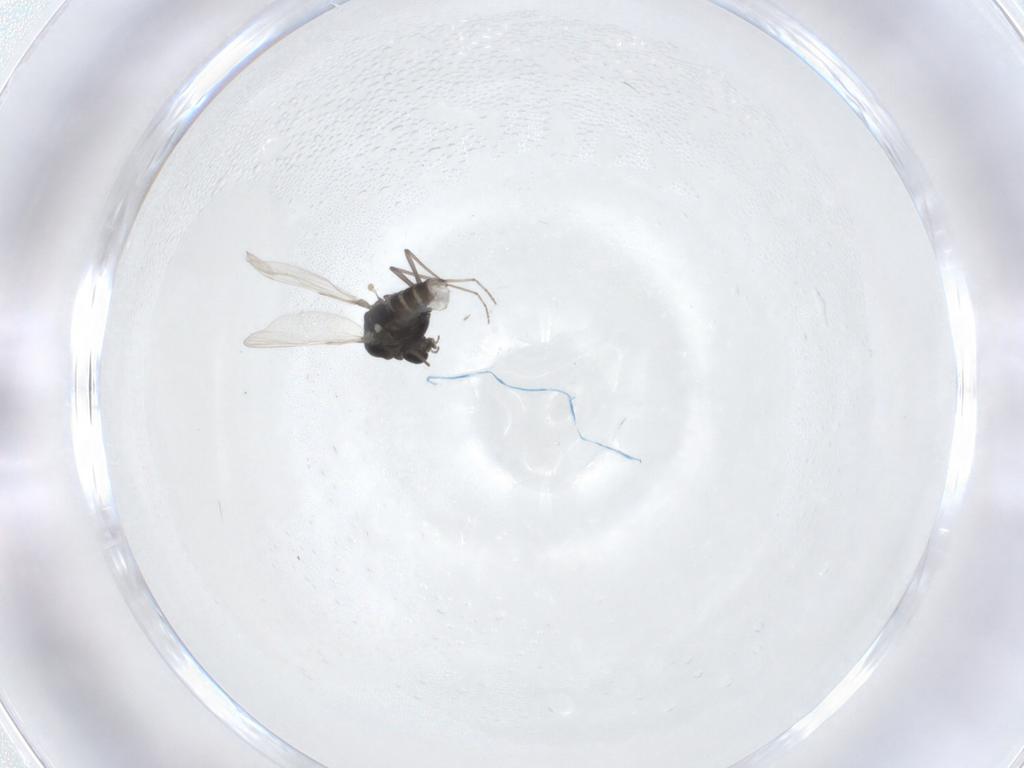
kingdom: Animalia
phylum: Arthropoda
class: Insecta
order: Diptera
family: Chironomidae
